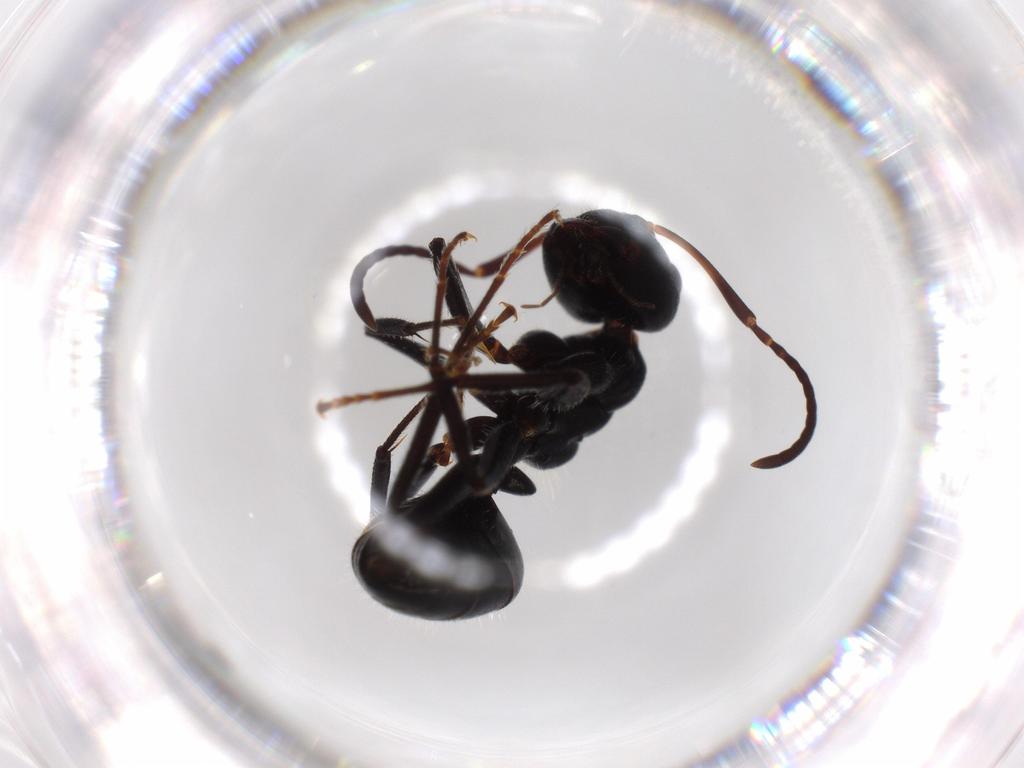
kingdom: Animalia
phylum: Arthropoda
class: Insecta
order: Hymenoptera
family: Formicidae
